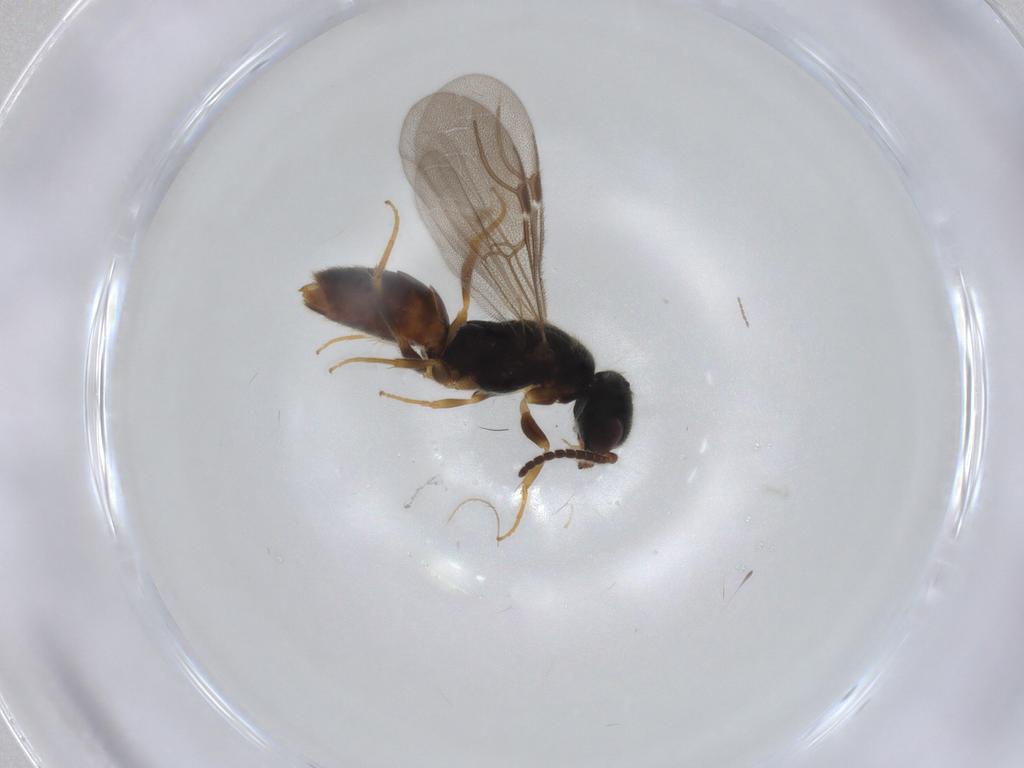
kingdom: Animalia
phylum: Arthropoda
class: Insecta
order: Hymenoptera
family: Bethylidae
